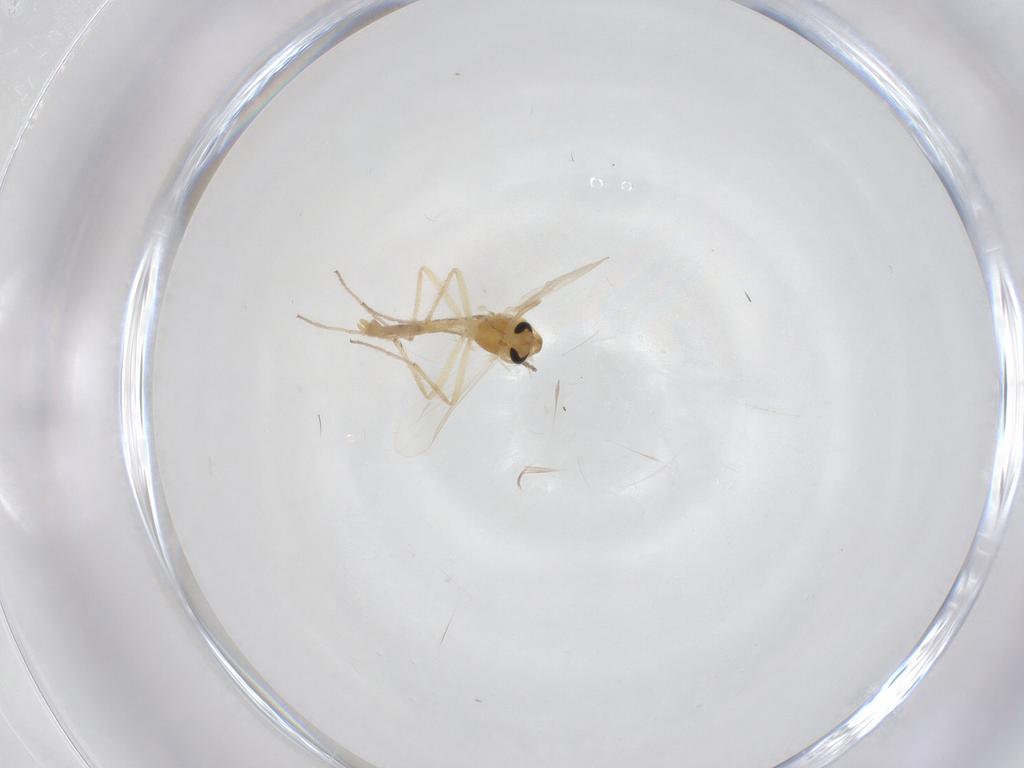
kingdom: Animalia
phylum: Arthropoda
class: Insecta
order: Diptera
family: Chironomidae
